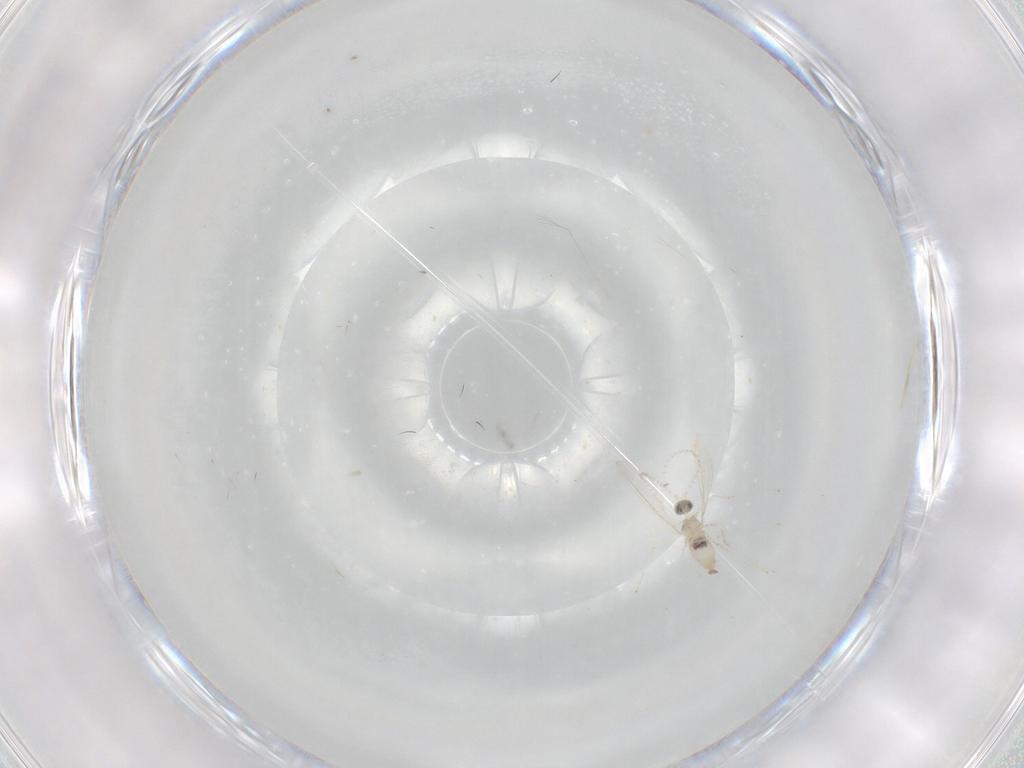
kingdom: Animalia
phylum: Arthropoda
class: Insecta
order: Diptera
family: Cecidomyiidae
